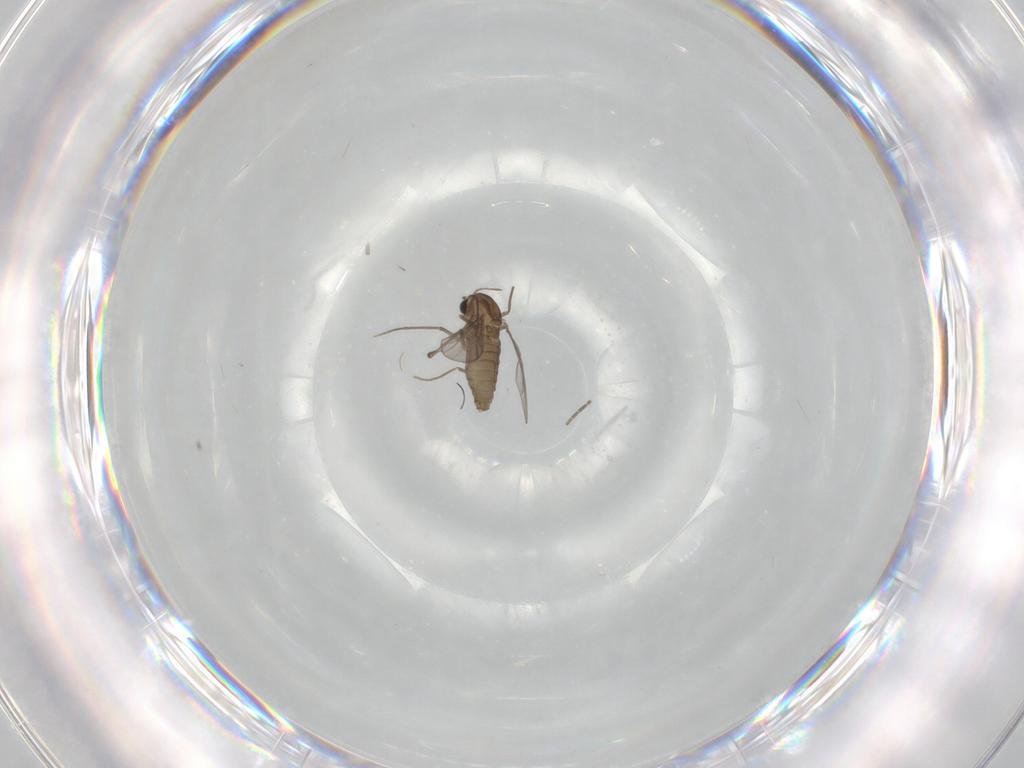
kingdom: Animalia
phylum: Arthropoda
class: Insecta
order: Diptera
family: Chironomidae
